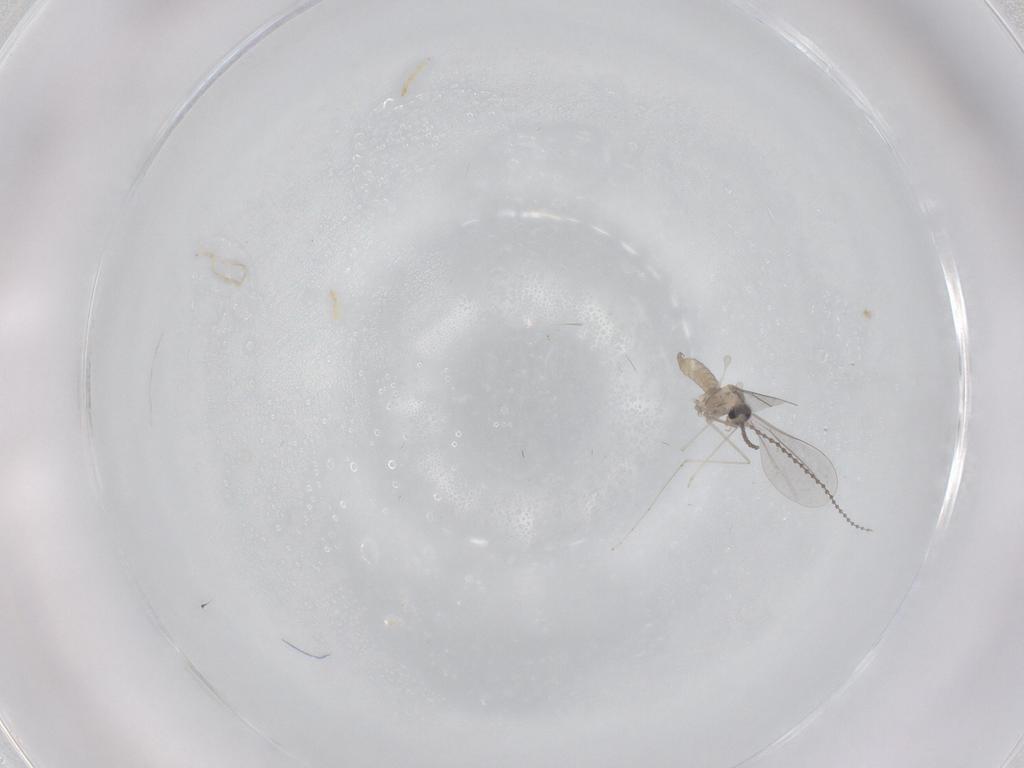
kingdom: Animalia
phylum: Arthropoda
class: Insecta
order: Diptera
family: Cecidomyiidae
